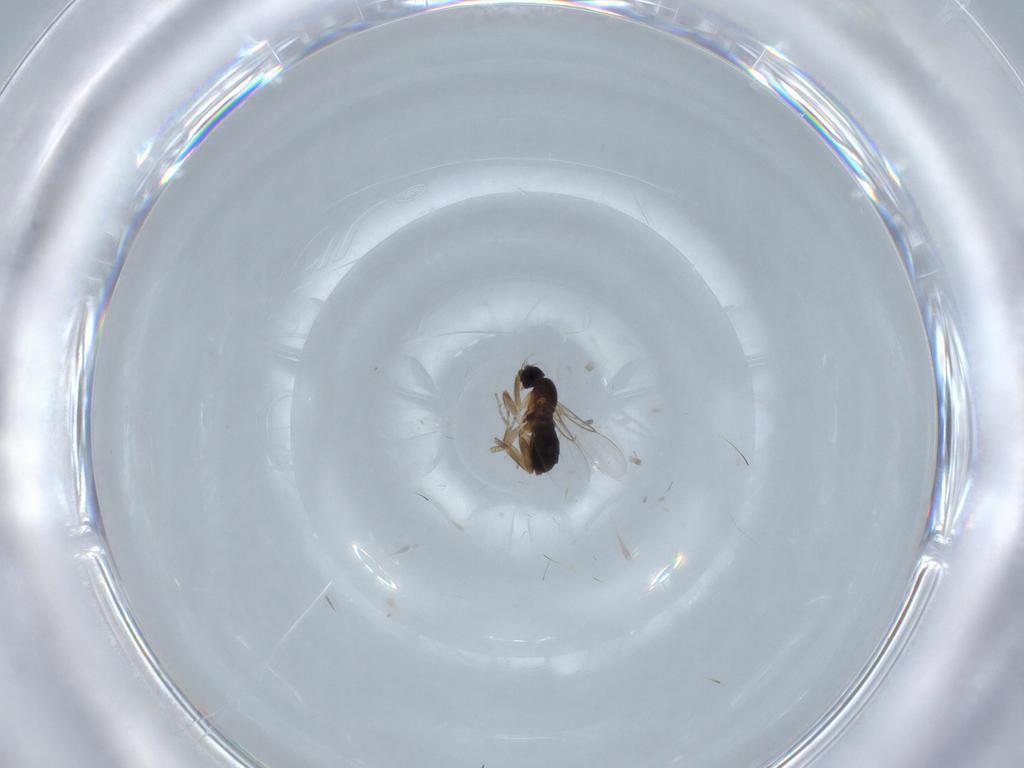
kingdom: Animalia
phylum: Arthropoda
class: Insecta
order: Diptera
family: Phoridae
